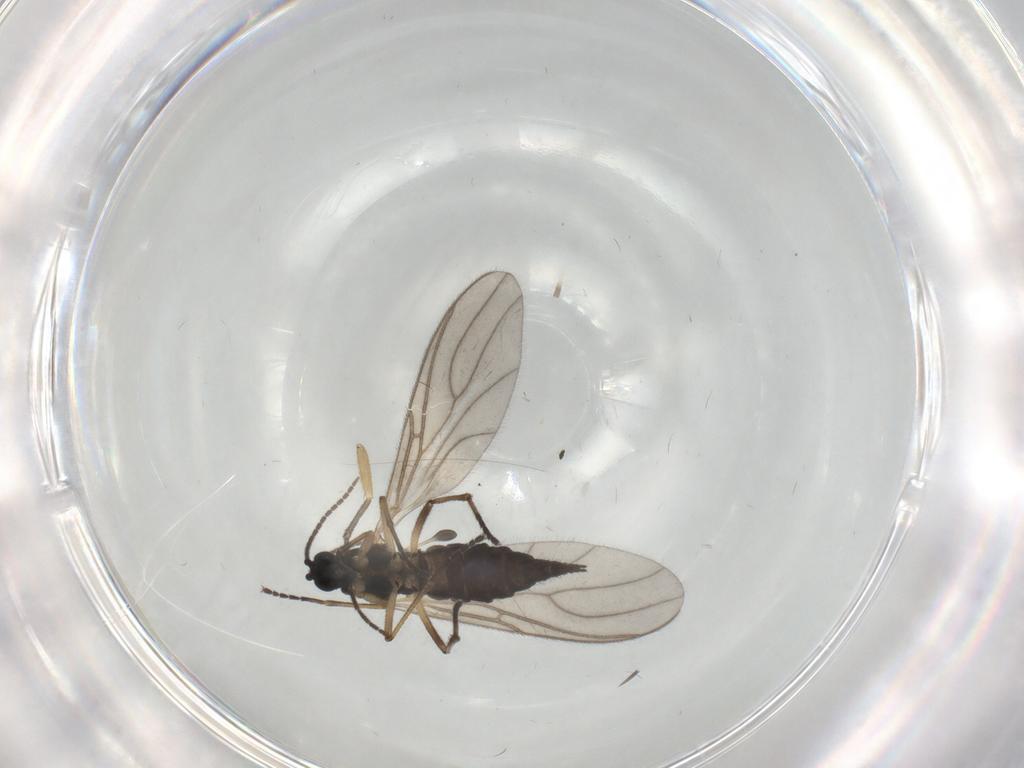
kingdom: Animalia
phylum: Arthropoda
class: Insecta
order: Diptera
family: Sciaridae
